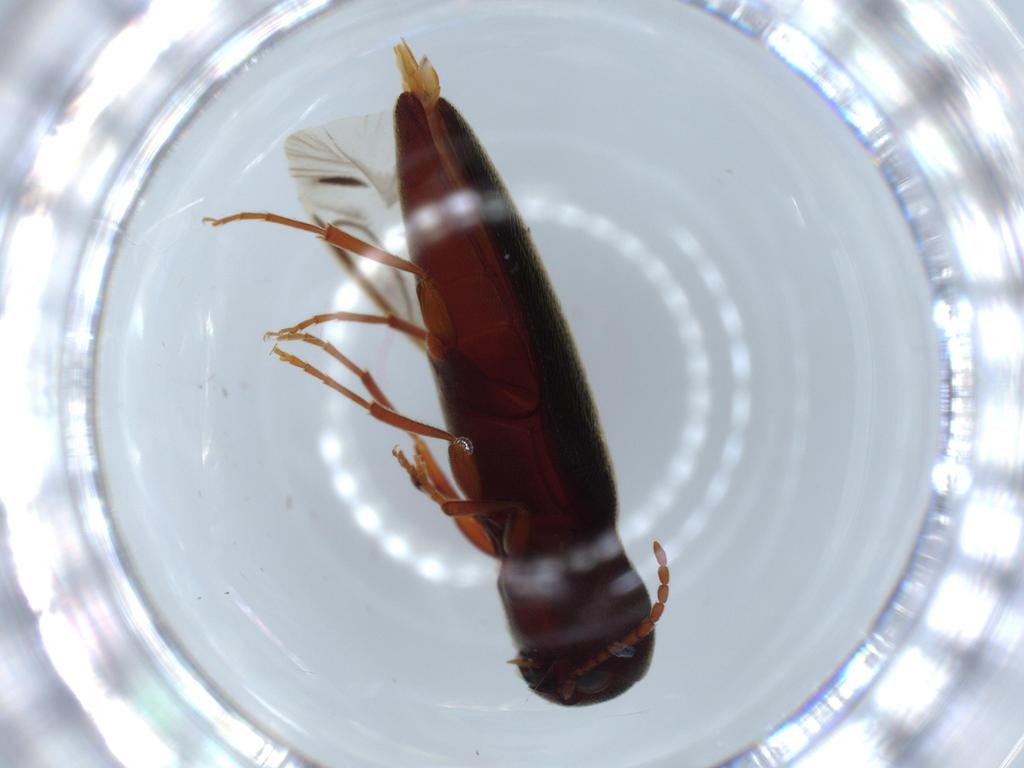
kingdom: Animalia
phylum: Arthropoda
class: Insecta
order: Coleoptera
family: Eucnemidae
